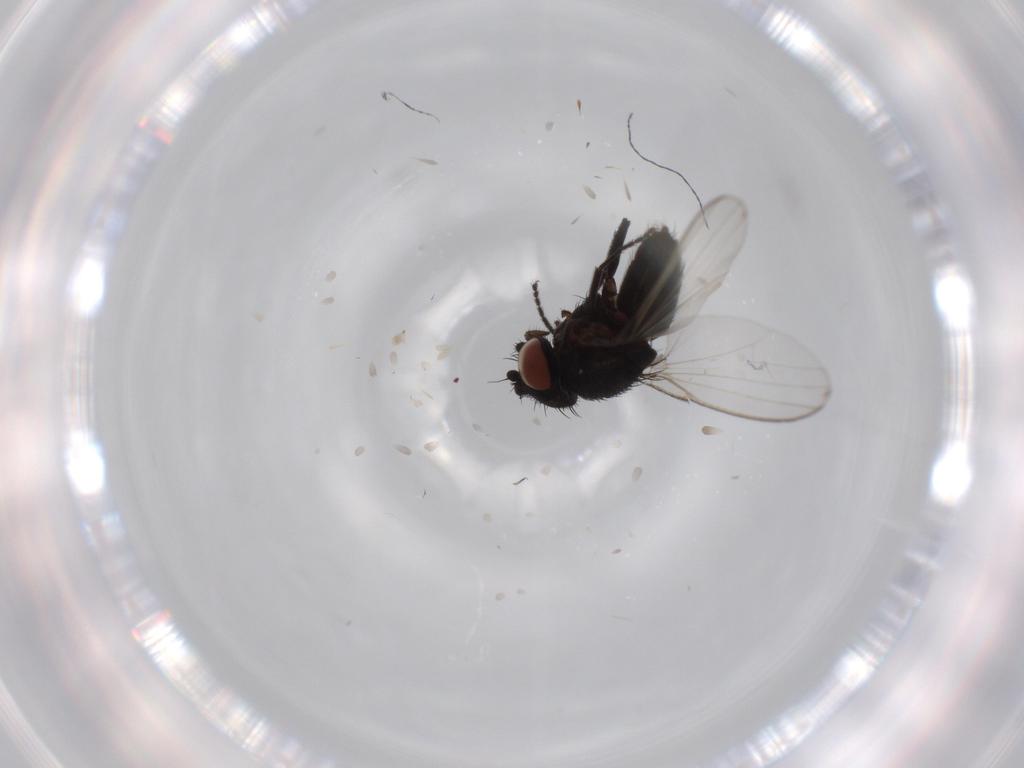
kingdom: Animalia
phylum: Arthropoda
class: Insecta
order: Diptera
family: Milichiidae
